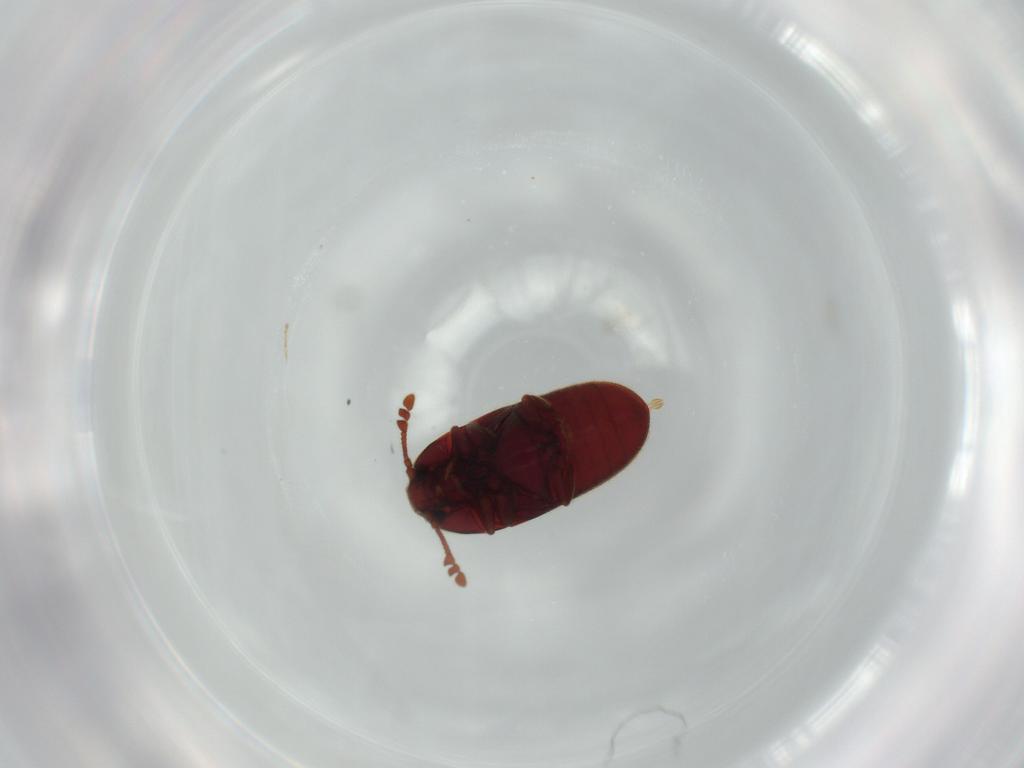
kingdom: Animalia
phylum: Arthropoda
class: Insecta
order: Coleoptera
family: Throscidae
